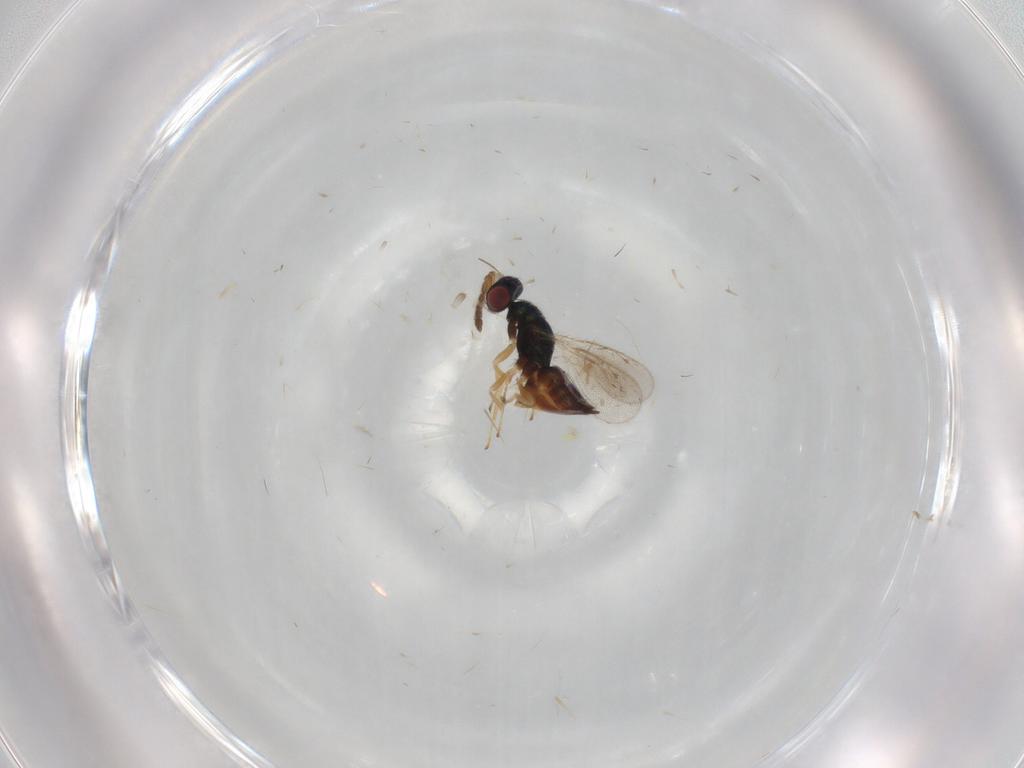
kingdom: Animalia
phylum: Arthropoda
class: Insecta
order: Hymenoptera
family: Eulophidae
